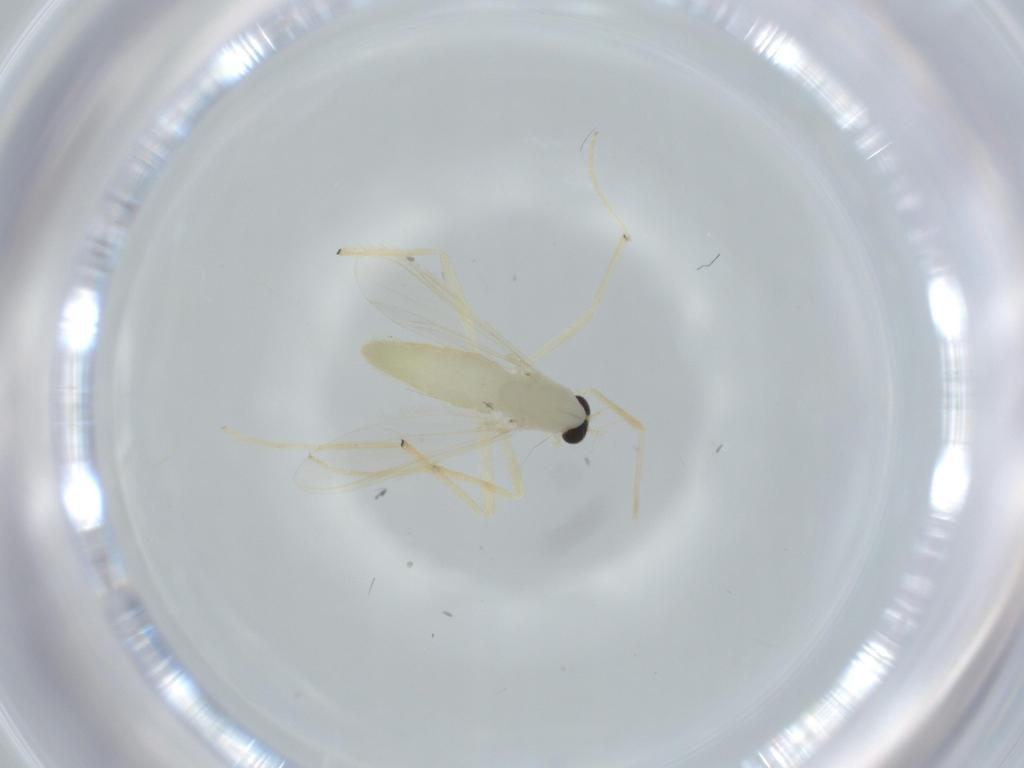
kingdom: Animalia
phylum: Arthropoda
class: Insecta
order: Diptera
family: Chironomidae
